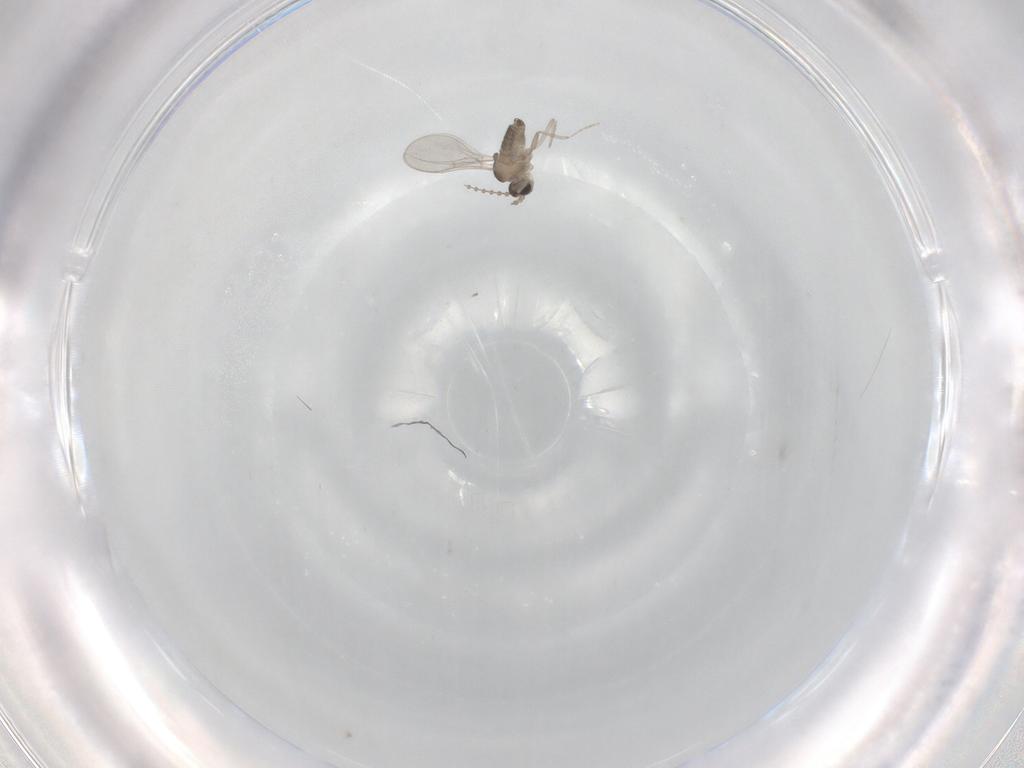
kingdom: Animalia
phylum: Arthropoda
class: Insecta
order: Diptera
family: Cecidomyiidae
